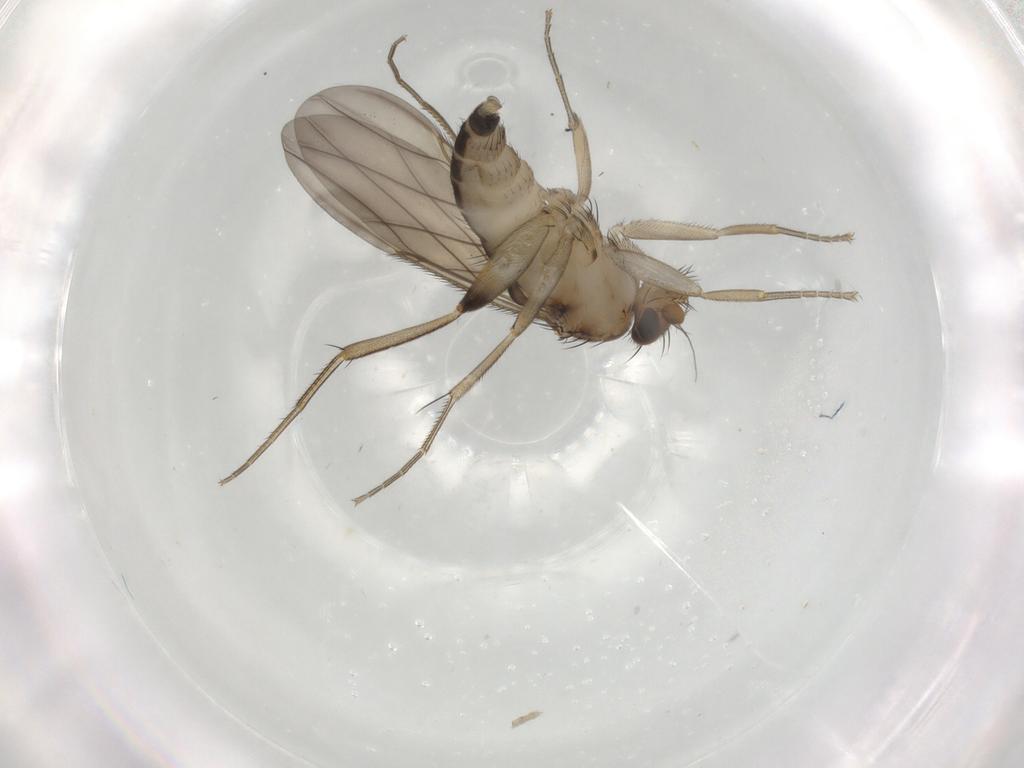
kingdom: Animalia
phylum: Arthropoda
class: Insecta
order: Diptera
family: Phoridae
